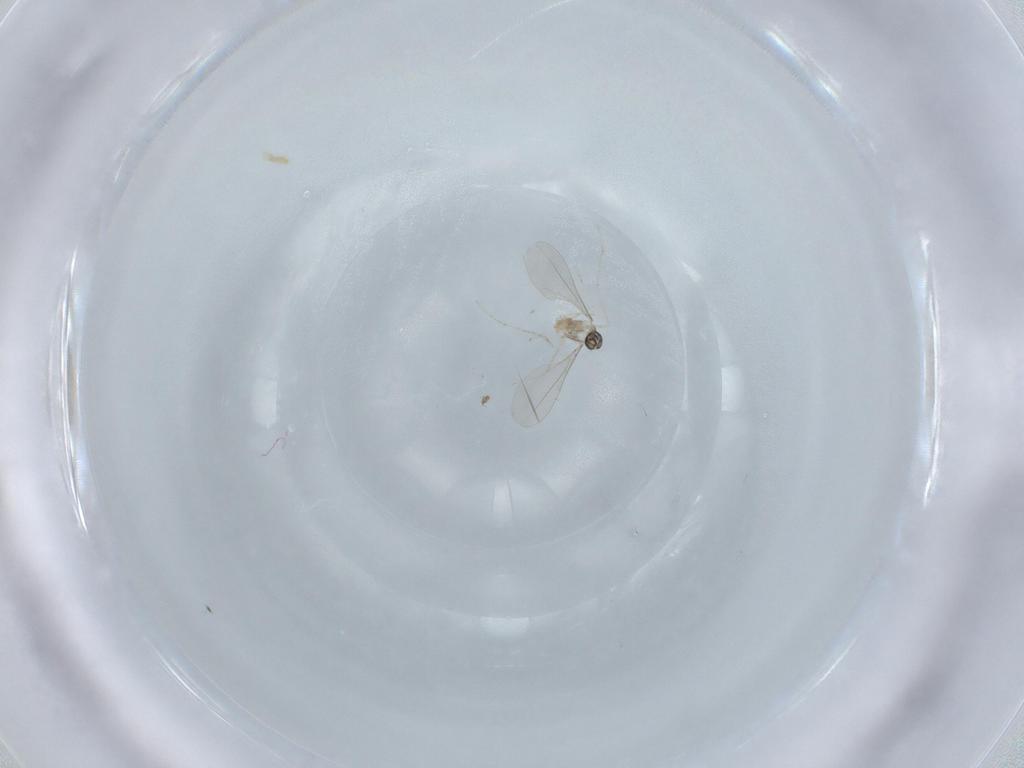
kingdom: Animalia
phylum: Arthropoda
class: Insecta
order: Diptera
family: Cecidomyiidae
